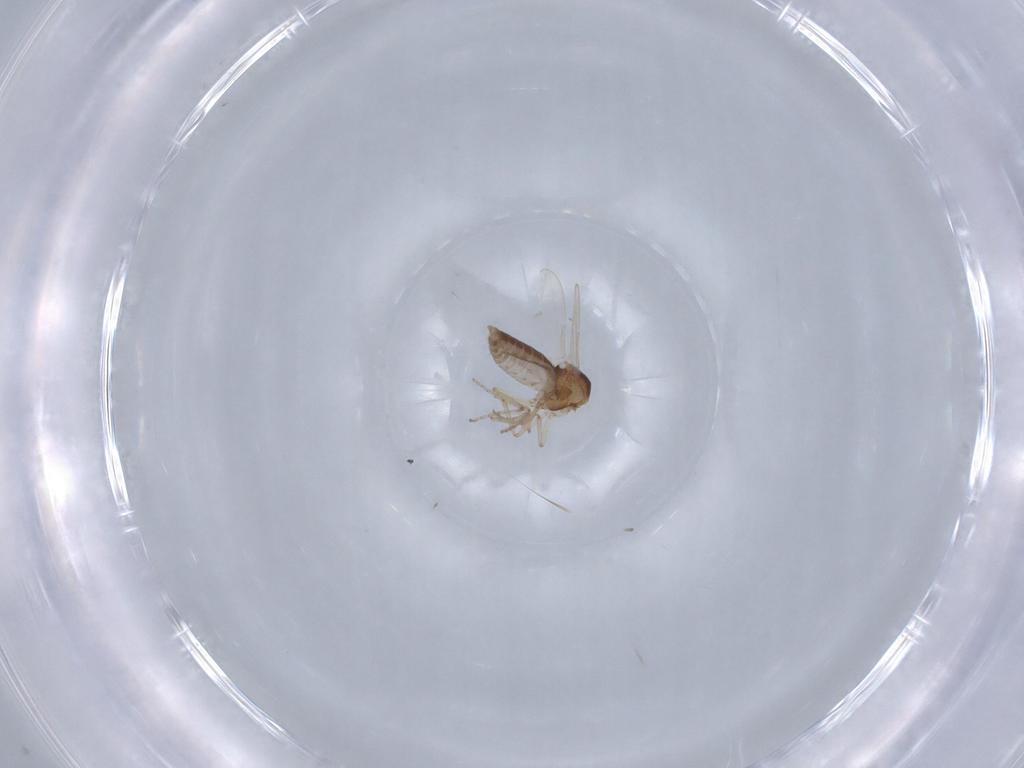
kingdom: Animalia
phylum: Arthropoda
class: Insecta
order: Diptera
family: Ceratopogonidae
